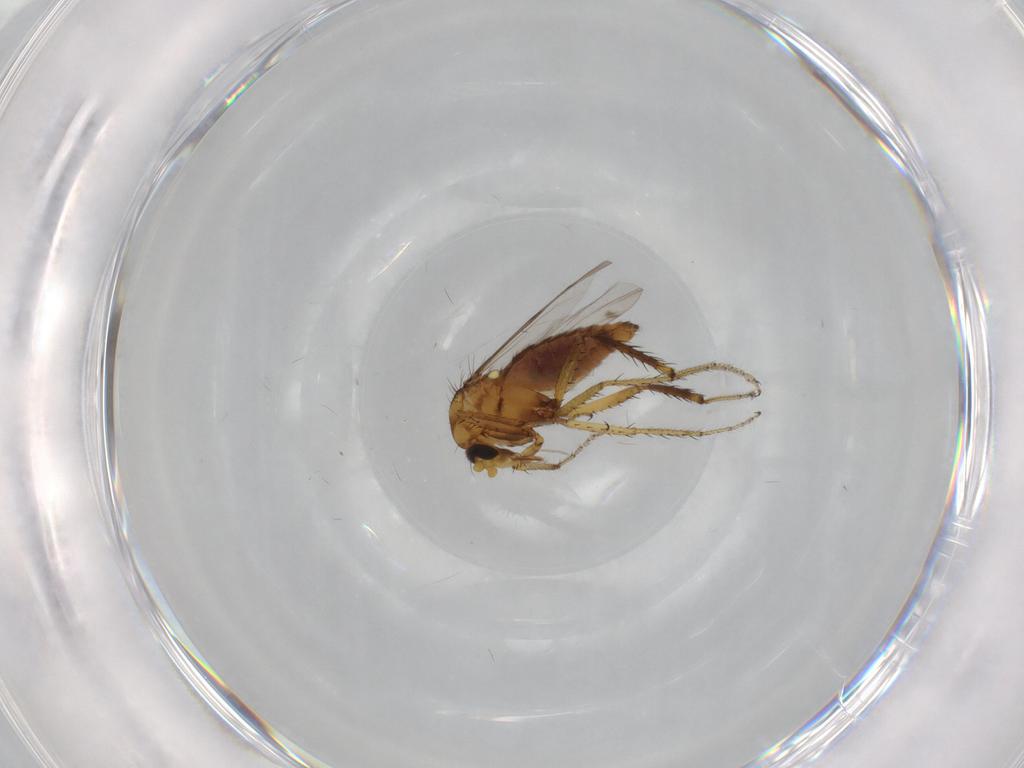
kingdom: Animalia
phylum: Arthropoda
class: Insecta
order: Diptera
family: Ceratopogonidae
